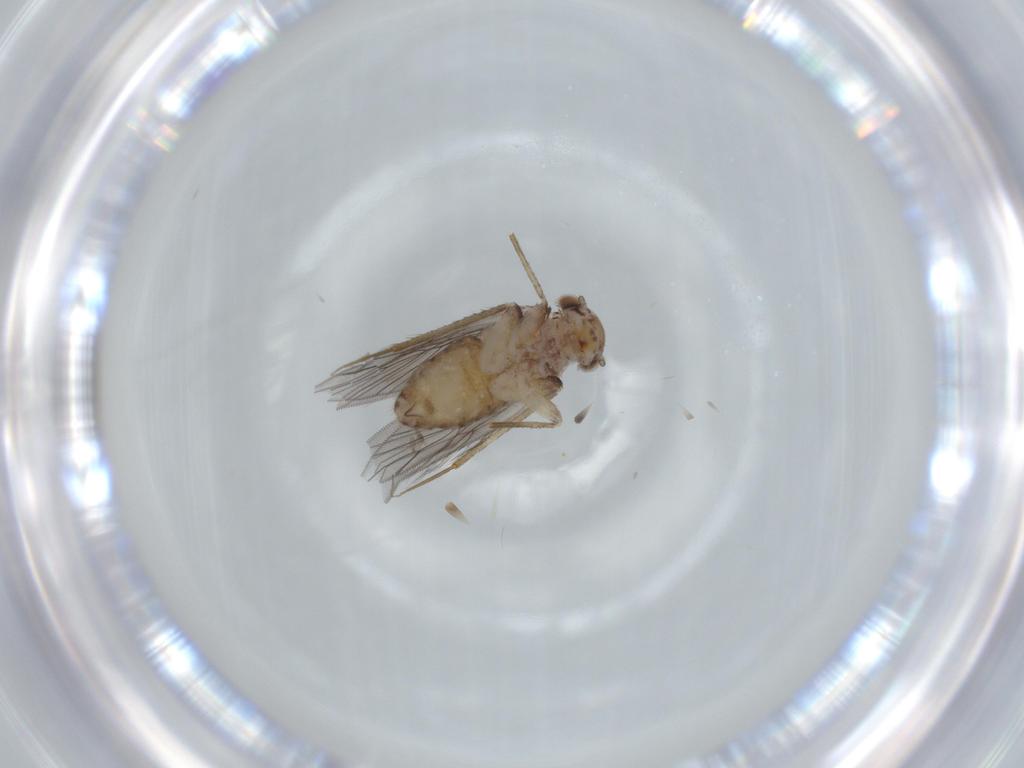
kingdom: Animalia
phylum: Arthropoda
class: Insecta
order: Psocodea
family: Lepidopsocidae
